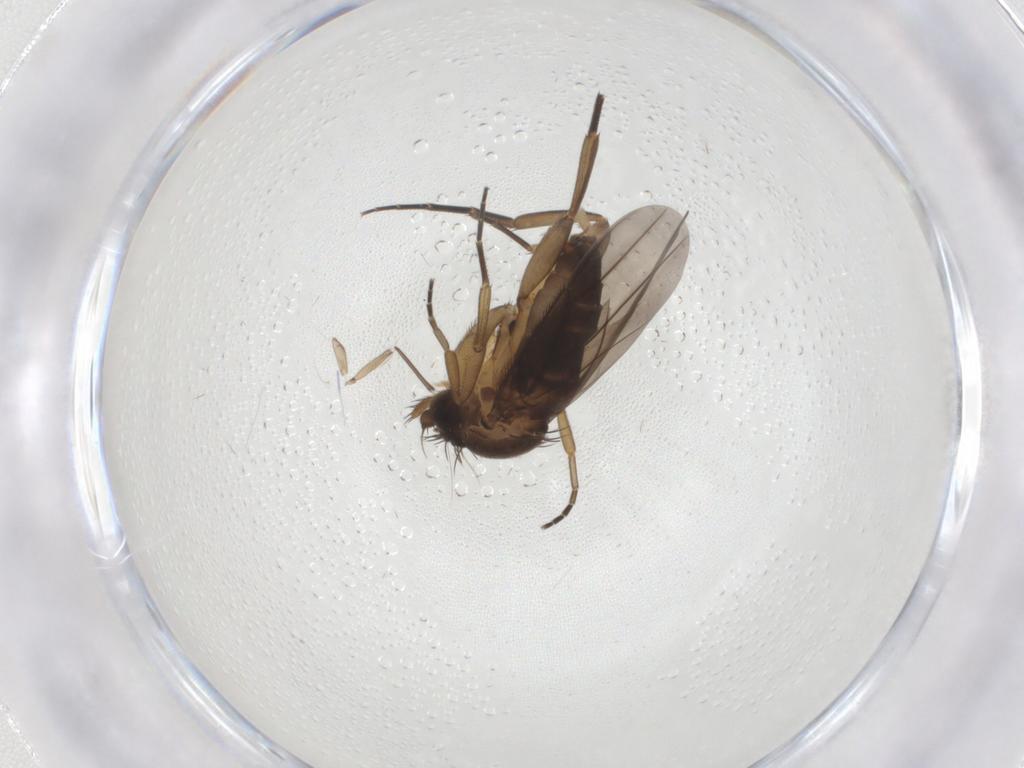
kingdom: Animalia
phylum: Arthropoda
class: Insecta
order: Diptera
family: Phoridae
